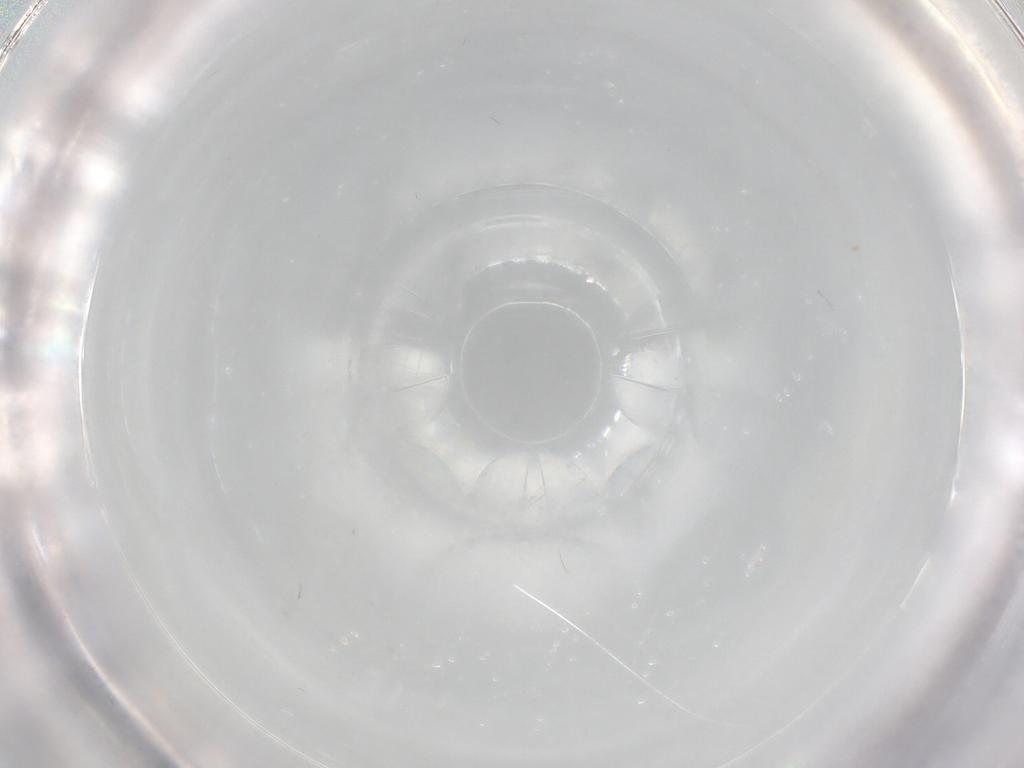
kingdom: Animalia
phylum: Arthropoda
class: Insecta
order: Diptera
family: Cecidomyiidae
